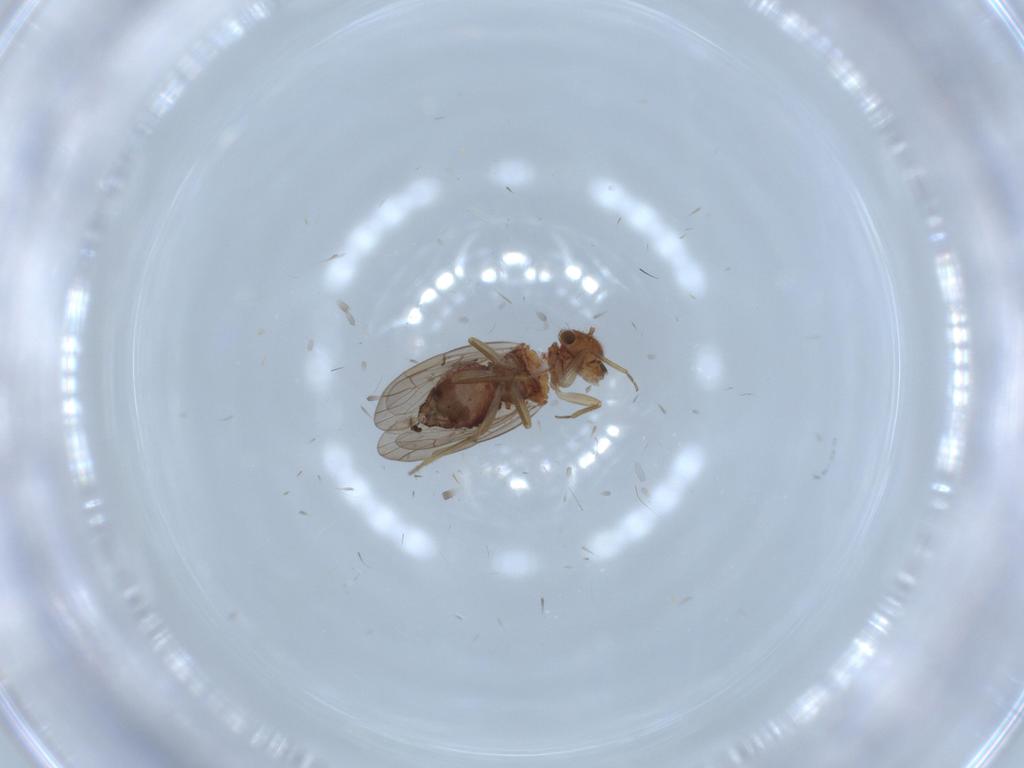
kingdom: Animalia
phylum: Arthropoda
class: Insecta
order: Psocodea
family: Ectopsocidae
